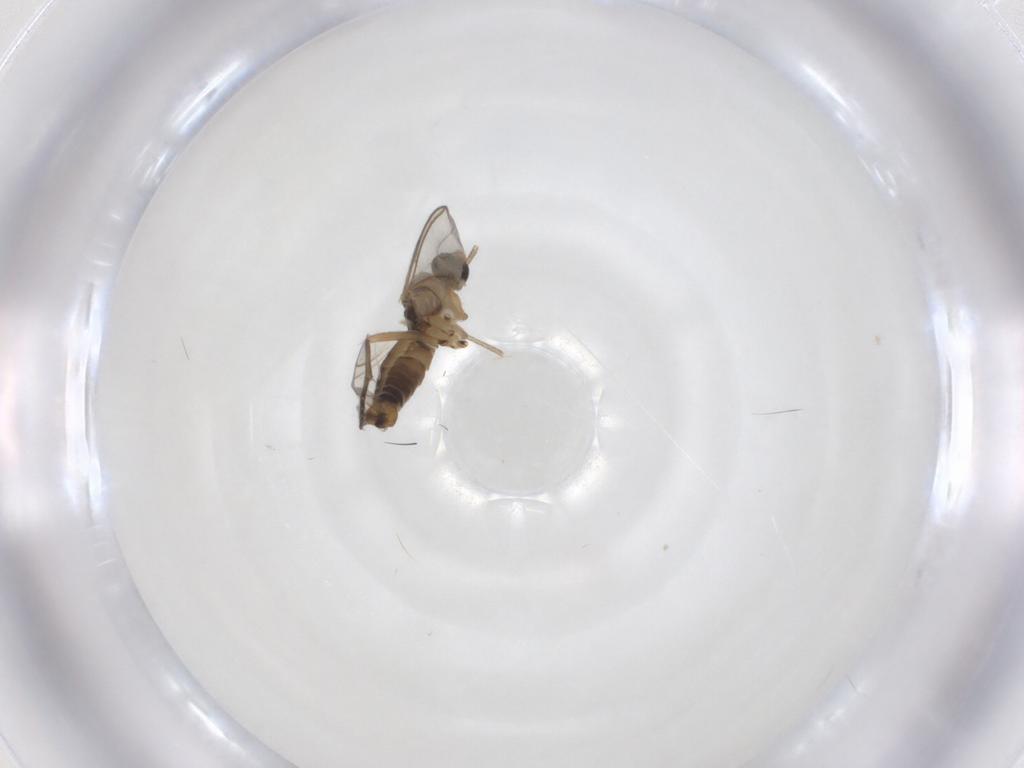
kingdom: Animalia
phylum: Arthropoda
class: Insecta
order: Diptera
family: Sciaridae
